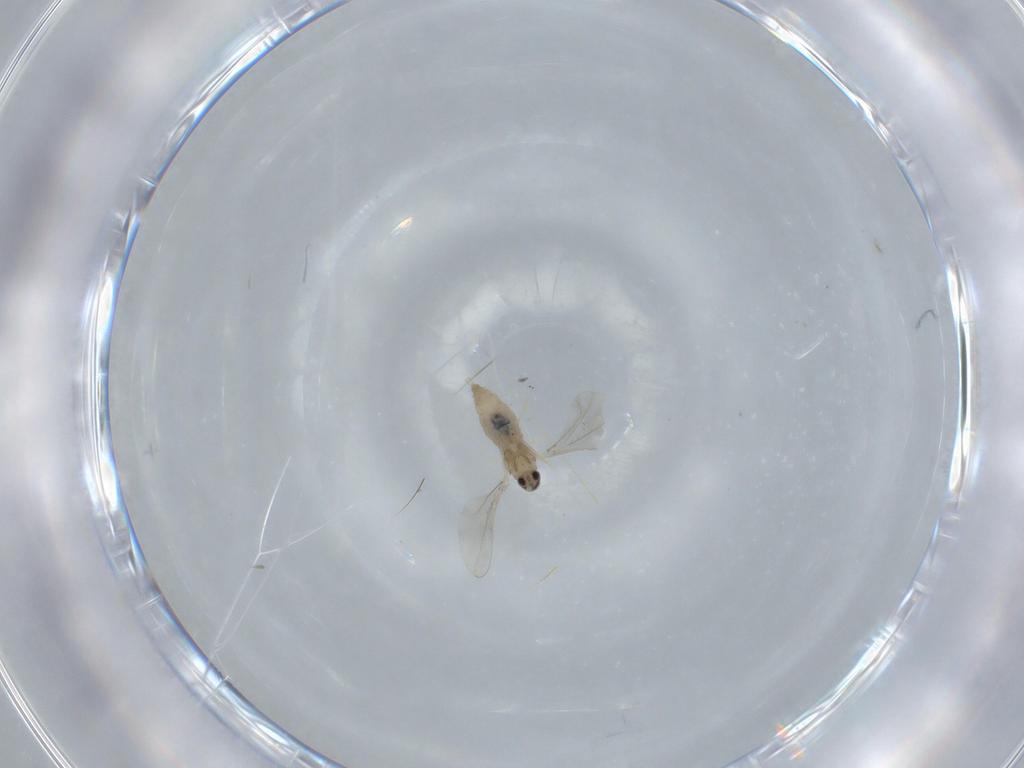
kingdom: Animalia
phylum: Arthropoda
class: Insecta
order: Diptera
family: Cecidomyiidae
